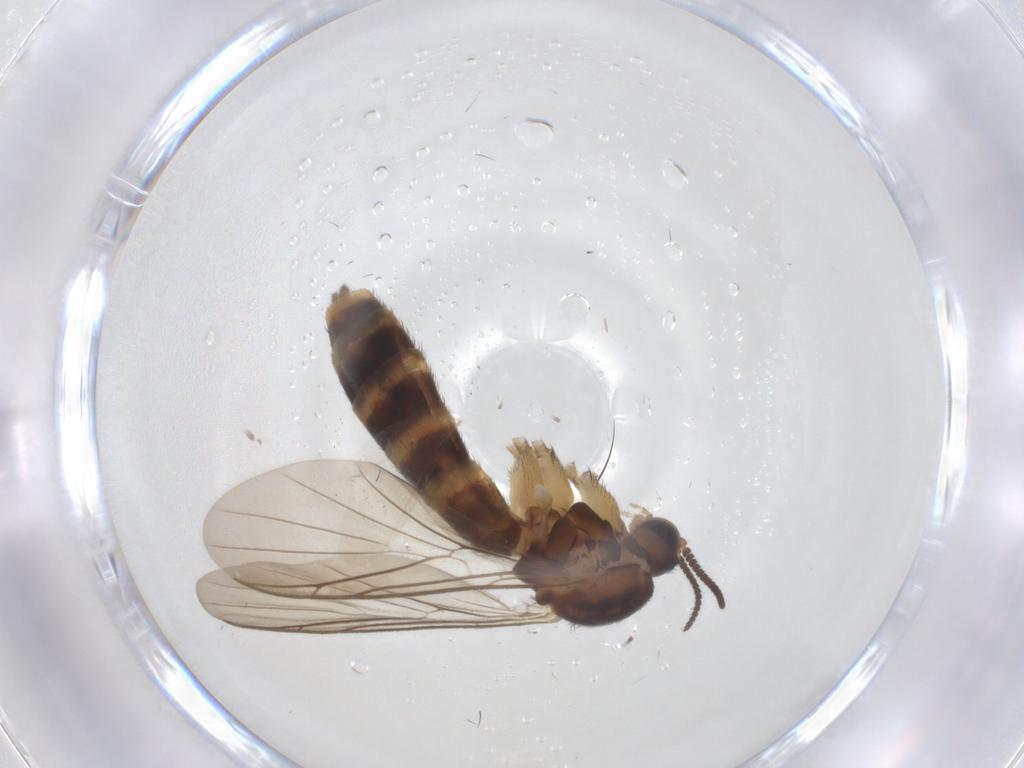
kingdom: Animalia
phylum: Arthropoda
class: Insecta
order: Diptera
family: Keroplatidae
